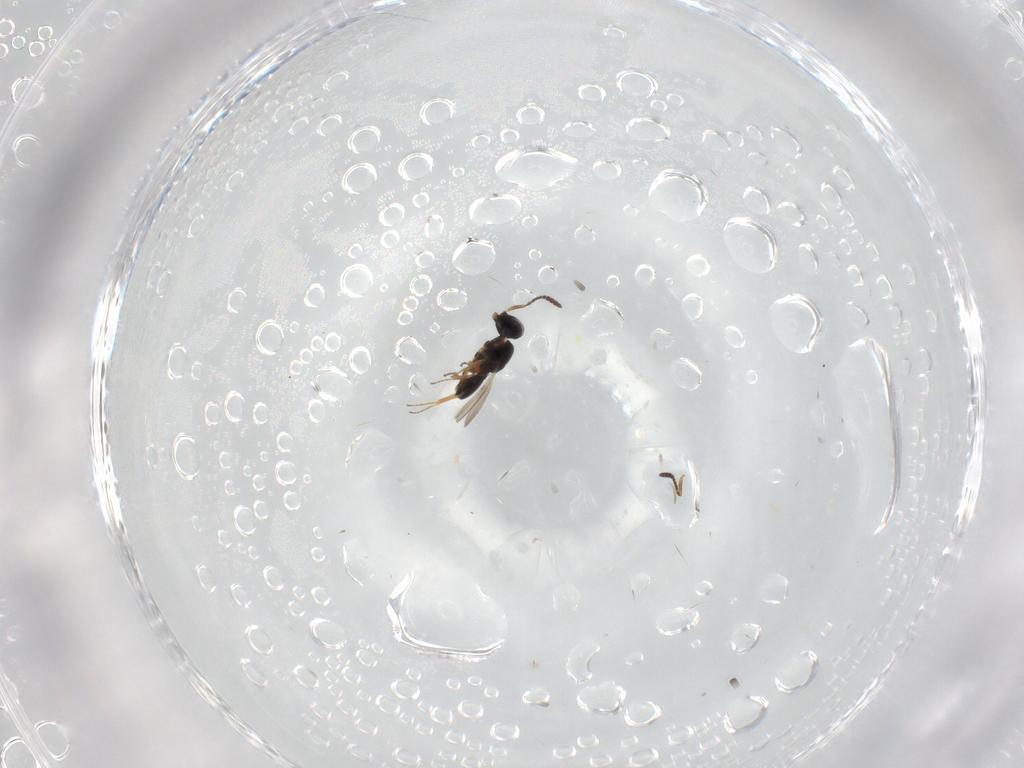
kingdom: Animalia
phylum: Arthropoda
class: Insecta
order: Hymenoptera
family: Scelionidae
